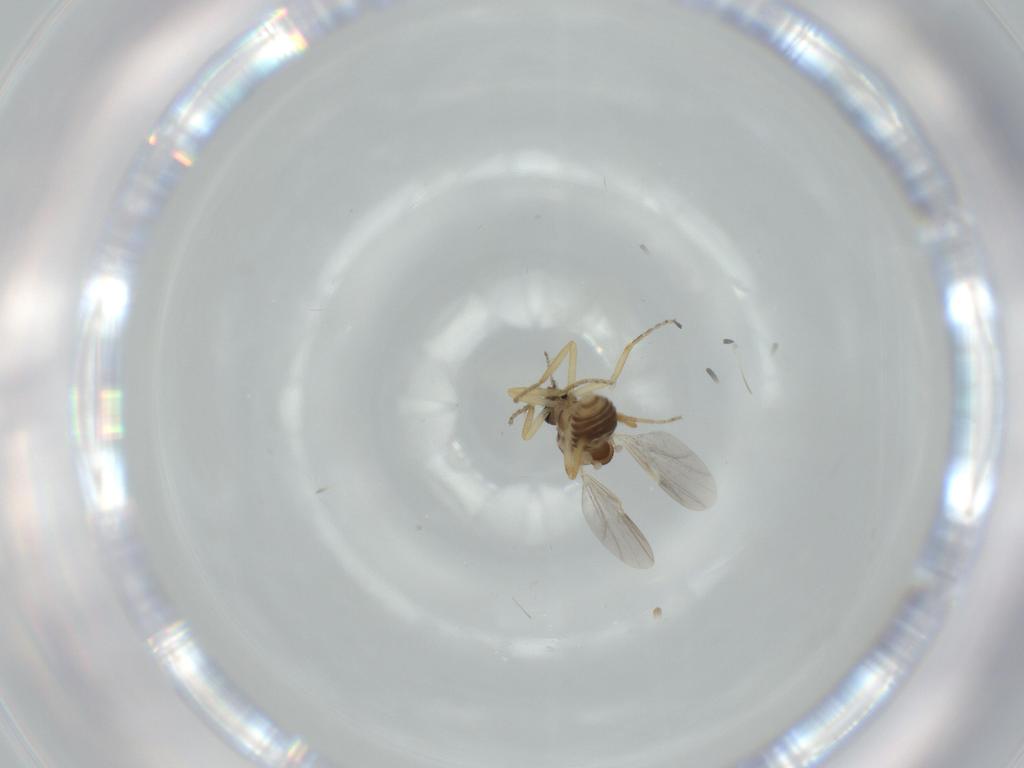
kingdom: Animalia
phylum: Arthropoda
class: Insecta
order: Diptera
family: Ceratopogonidae
